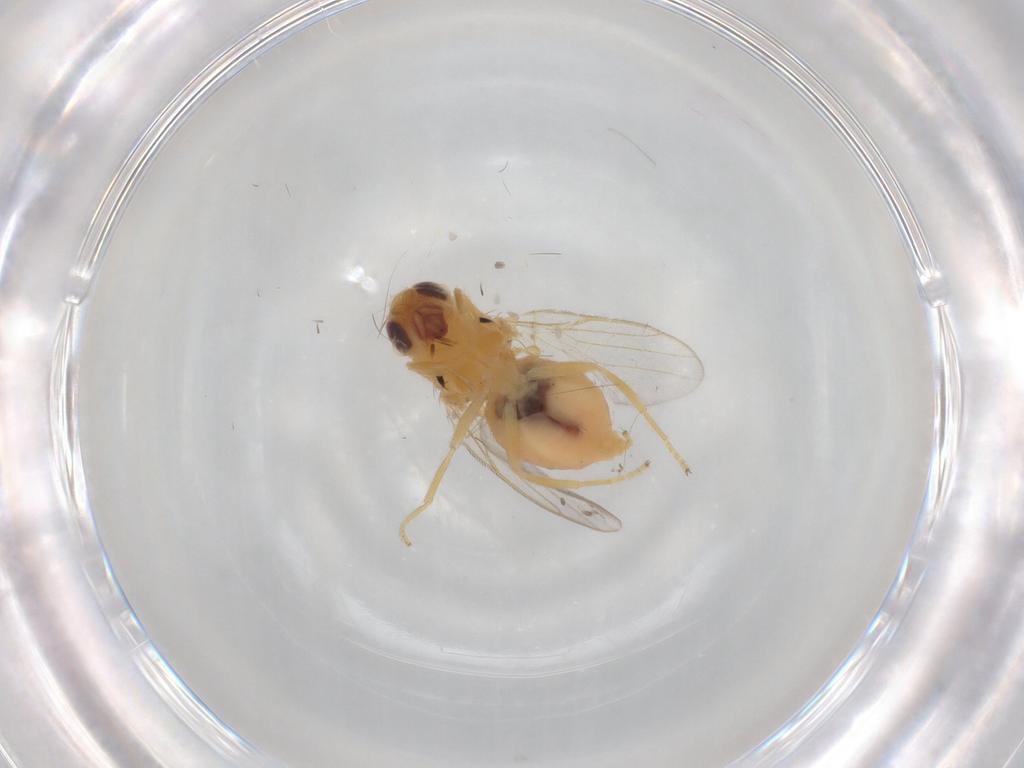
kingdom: Animalia
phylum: Arthropoda
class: Insecta
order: Diptera
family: Chloropidae
